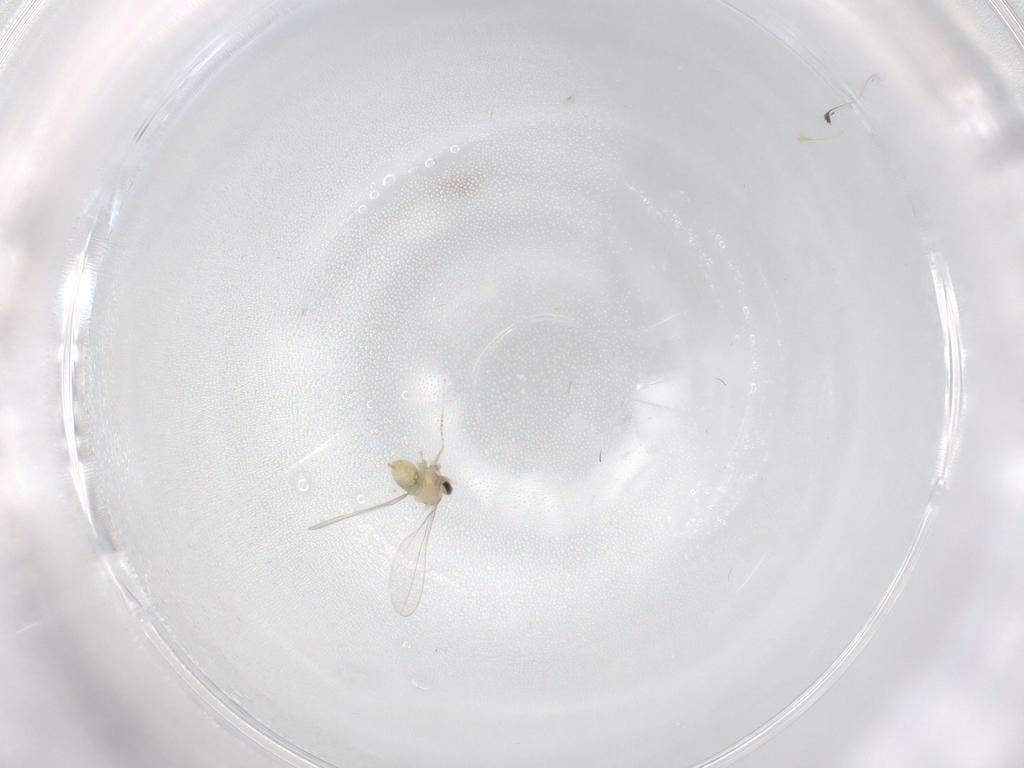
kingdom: Animalia
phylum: Arthropoda
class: Insecta
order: Diptera
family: Cecidomyiidae
